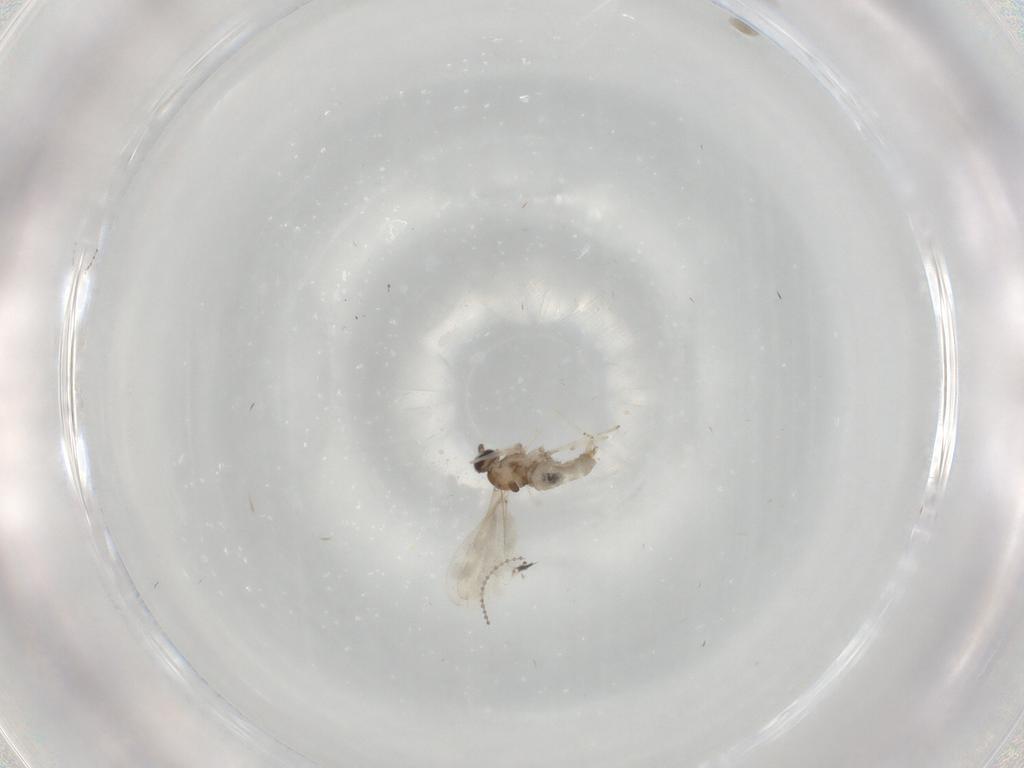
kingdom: Animalia
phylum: Arthropoda
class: Insecta
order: Diptera
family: Cecidomyiidae
